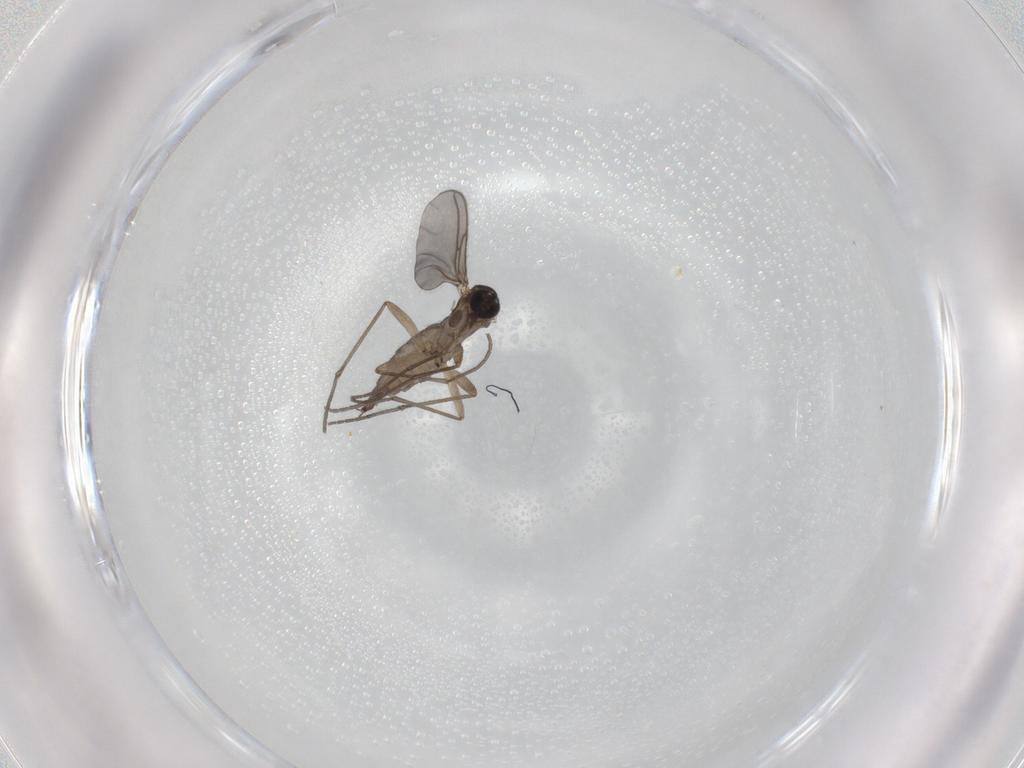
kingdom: Animalia
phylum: Arthropoda
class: Insecta
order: Diptera
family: Sciaridae
